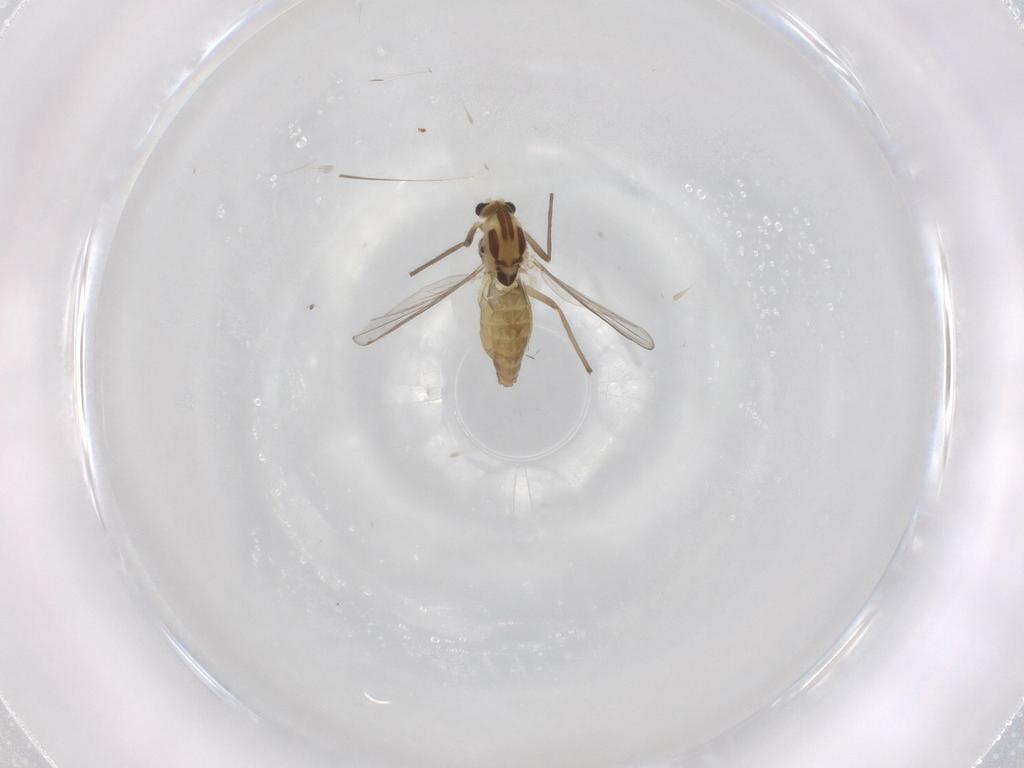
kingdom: Animalia
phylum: Arthropoda
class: Insecta
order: Diptera
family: Chironomidae
